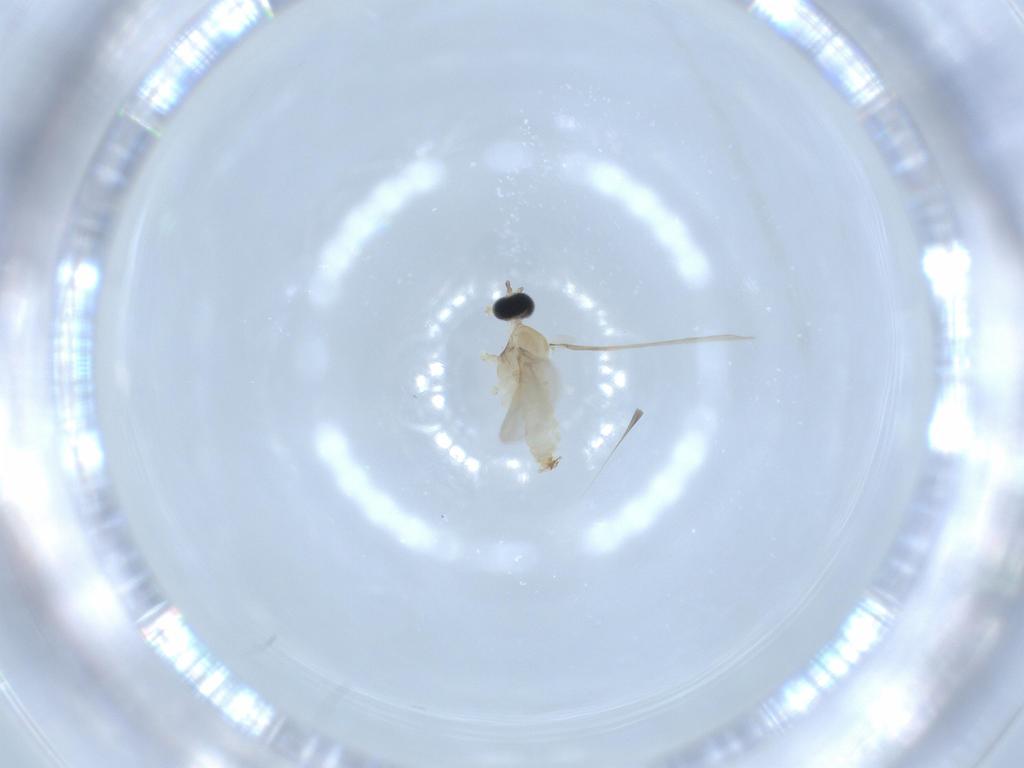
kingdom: Animalia
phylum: Arthropoda
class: Insecta
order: Diptera
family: Cecidomyiidae
